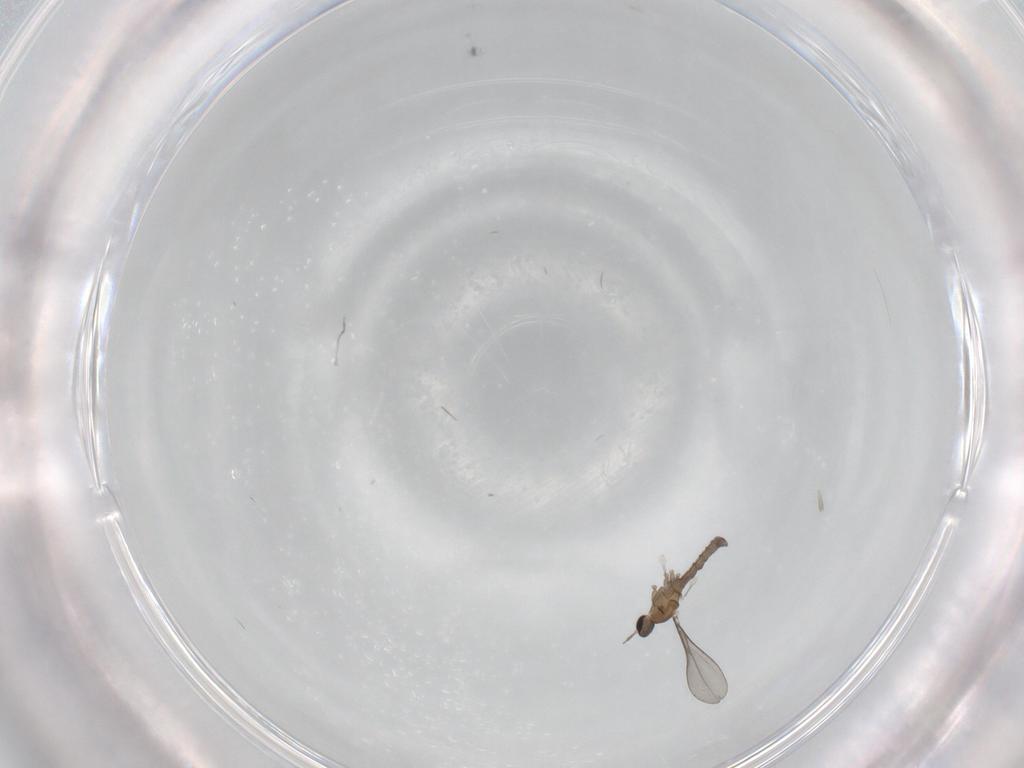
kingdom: Animalia
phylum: Arthropoda
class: Insecta
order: Diptera
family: Cecidomyiidae
